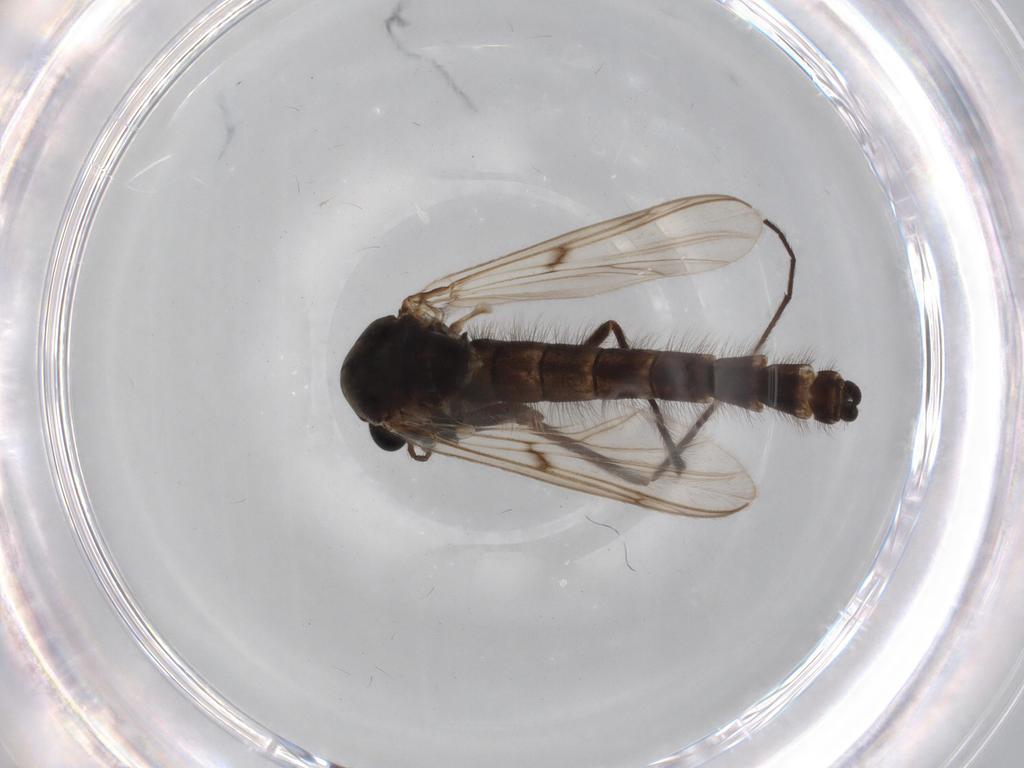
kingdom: Animalia
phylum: Arthropoda
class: Insecta
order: Diptera
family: Chironomidae
